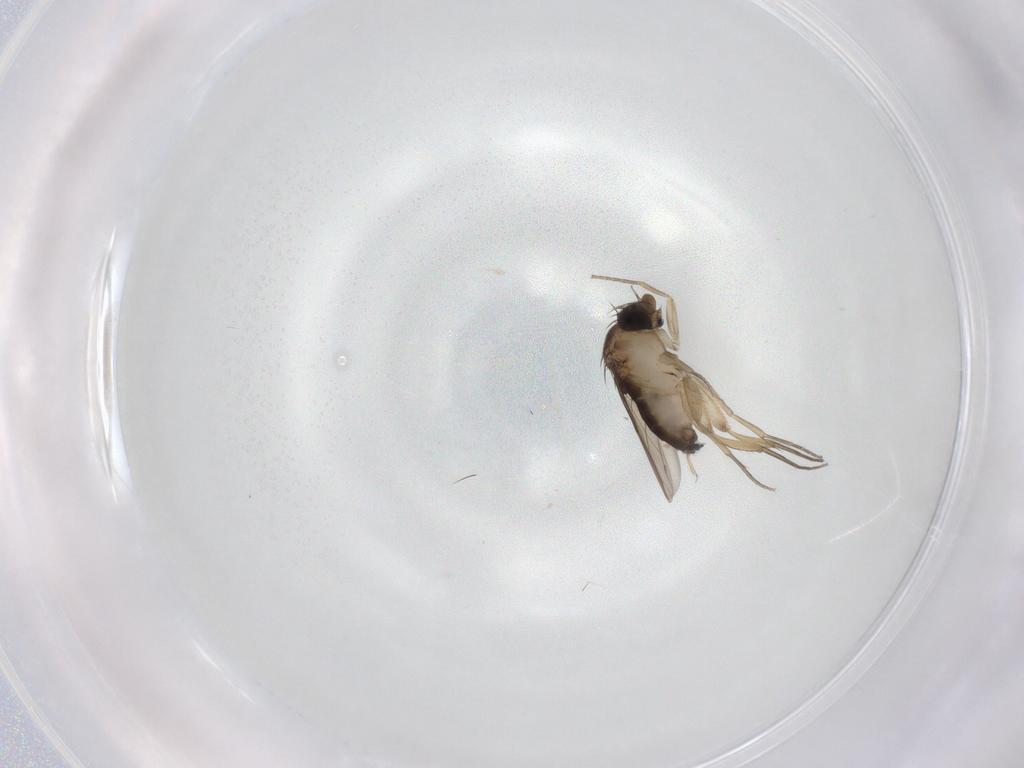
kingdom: Animalia
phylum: Arthropoda
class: Insecta
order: Diptera
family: Phoridae
